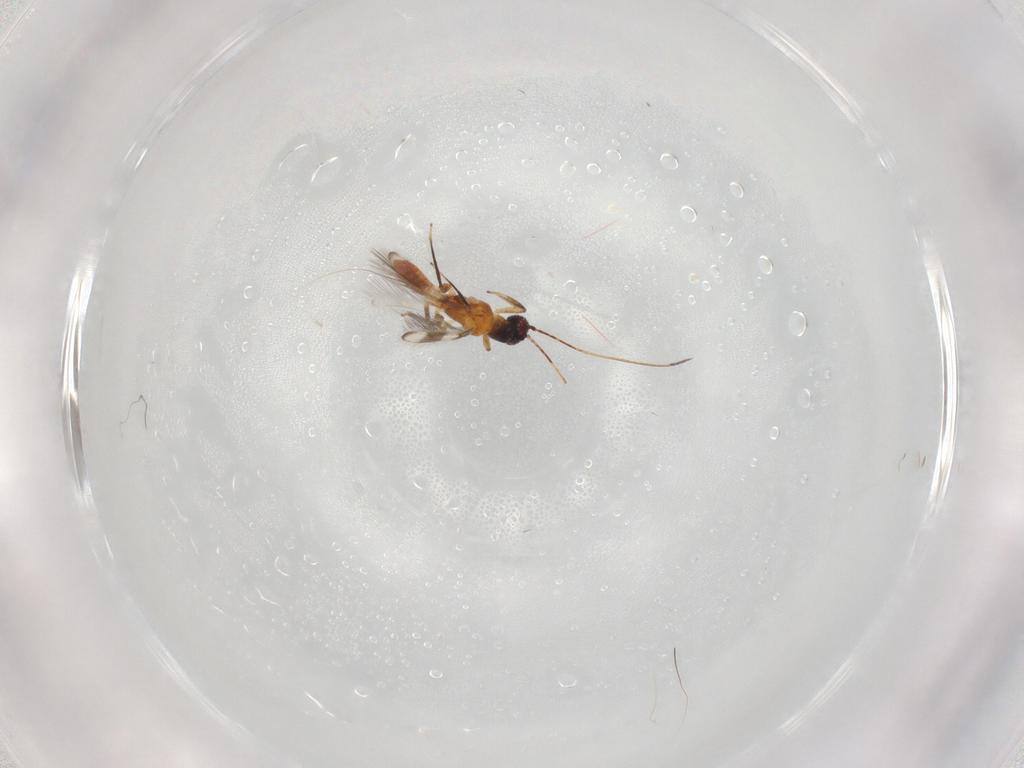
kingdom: Animalia
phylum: Arthropoda
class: Insecta
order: Thysanoptera
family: Aeolothripidae
